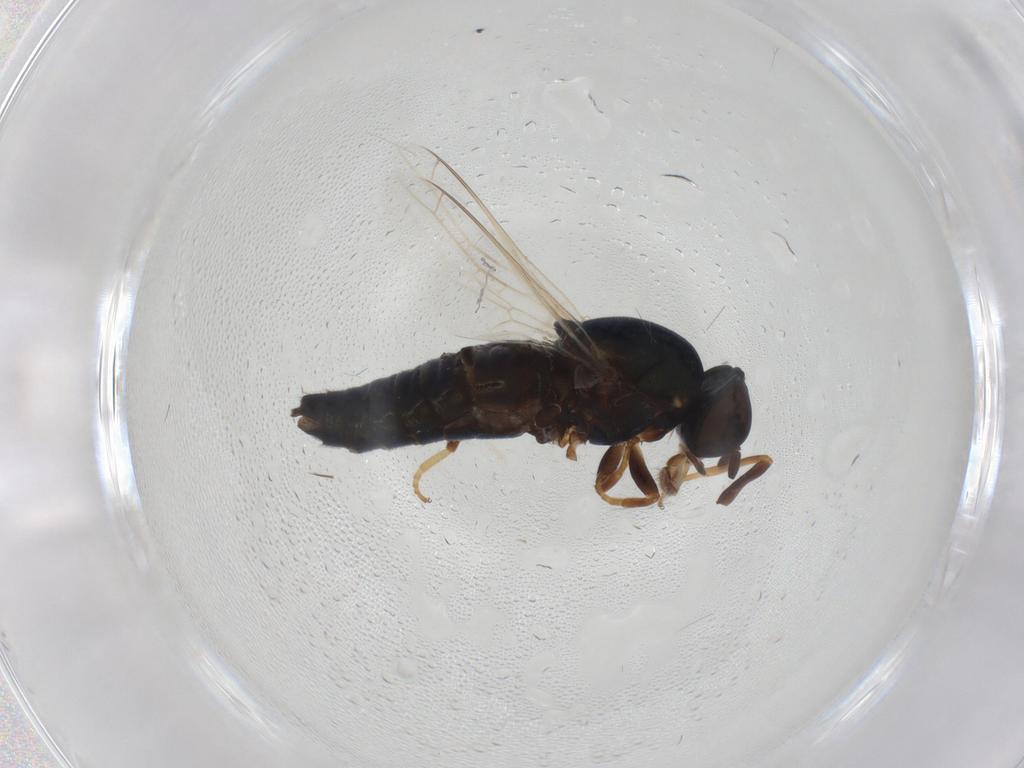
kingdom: Animalia
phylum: Arthropoda
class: Insecta
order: Diptera
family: Scenopinidae
